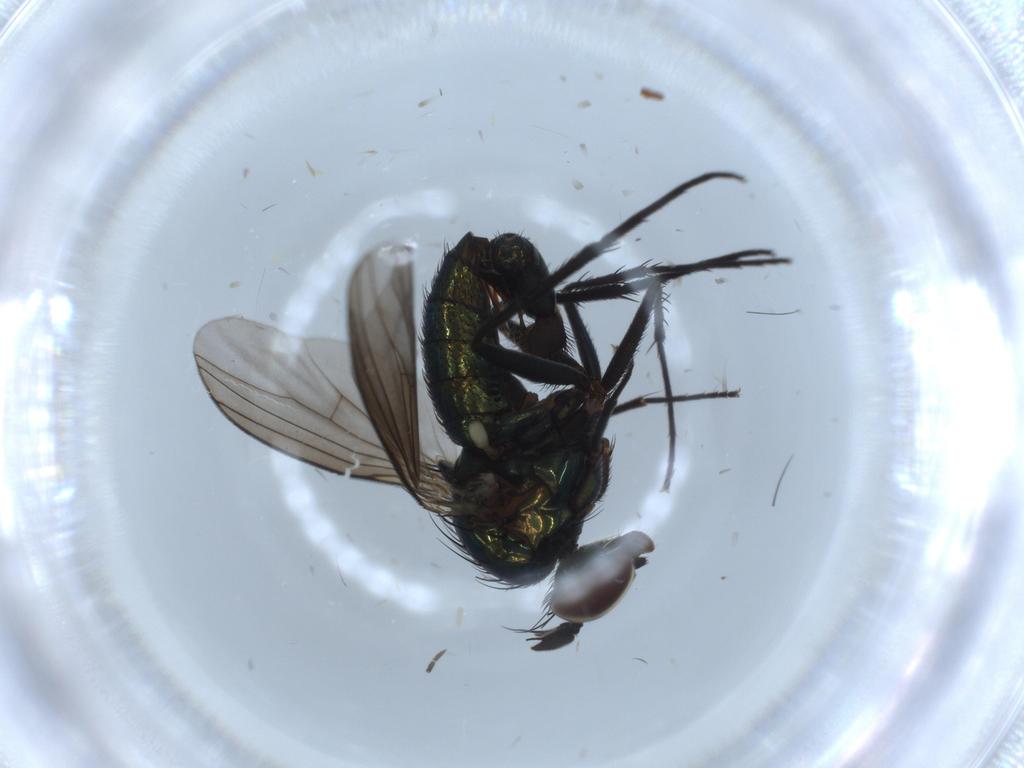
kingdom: Animalia
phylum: Arthropoda
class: Insecta
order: Diptera
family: Dolichopodidae
